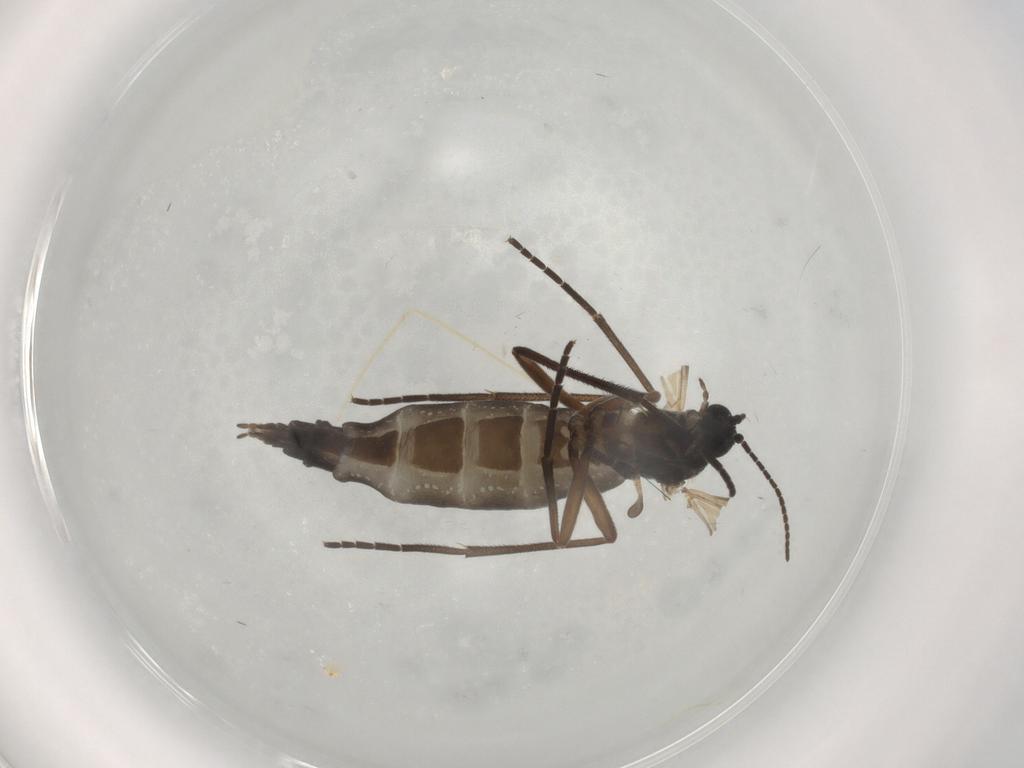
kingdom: Animalia
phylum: Arthropoda
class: Insecta
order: Diptera
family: Sciaridae
